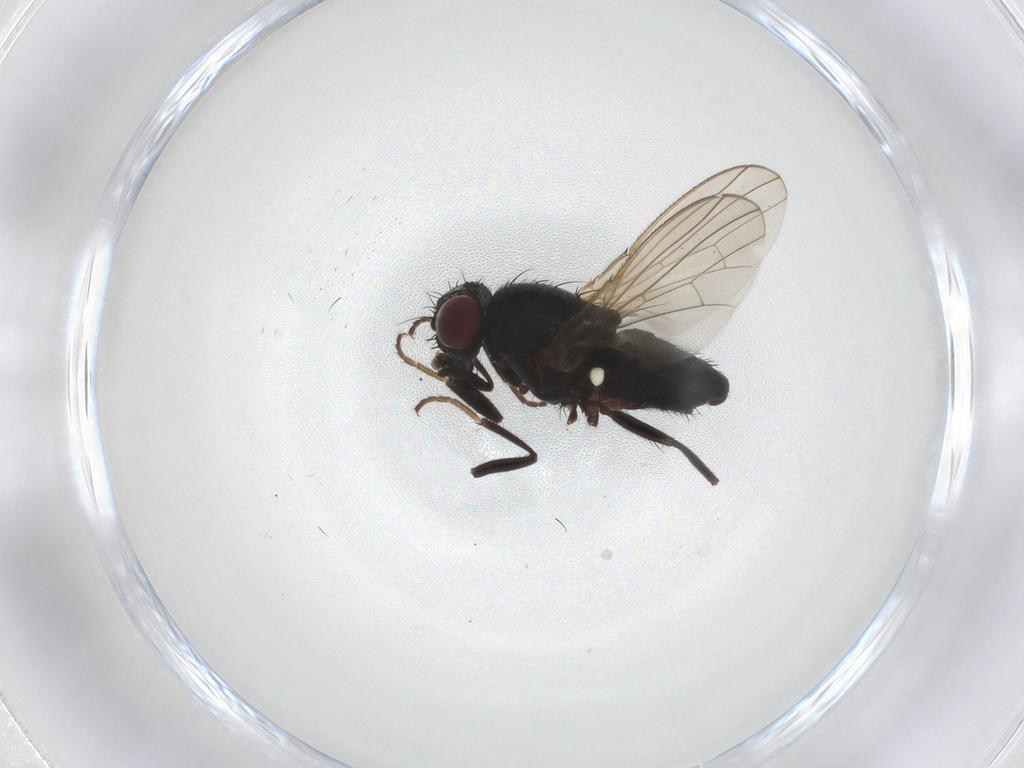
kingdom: Animalia
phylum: Arthropoda
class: Insecta
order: Diptera
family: Carnidae
